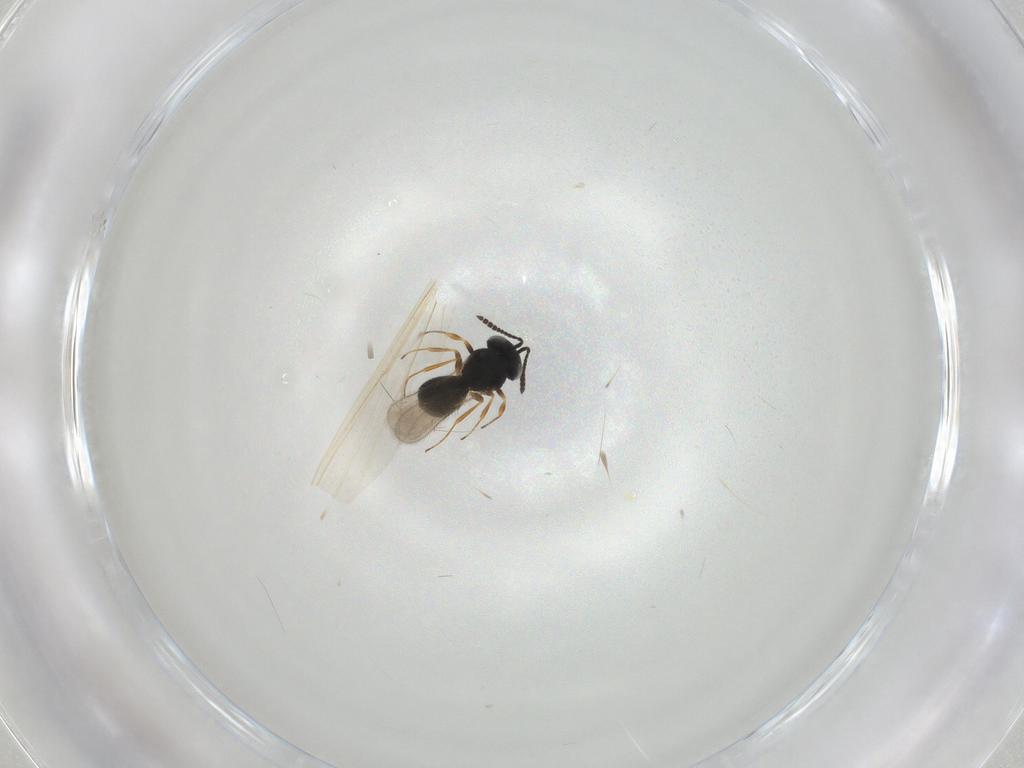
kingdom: Animalia
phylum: Arthropoda
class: Insecta
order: Hymenoptera
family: Scelionidae
